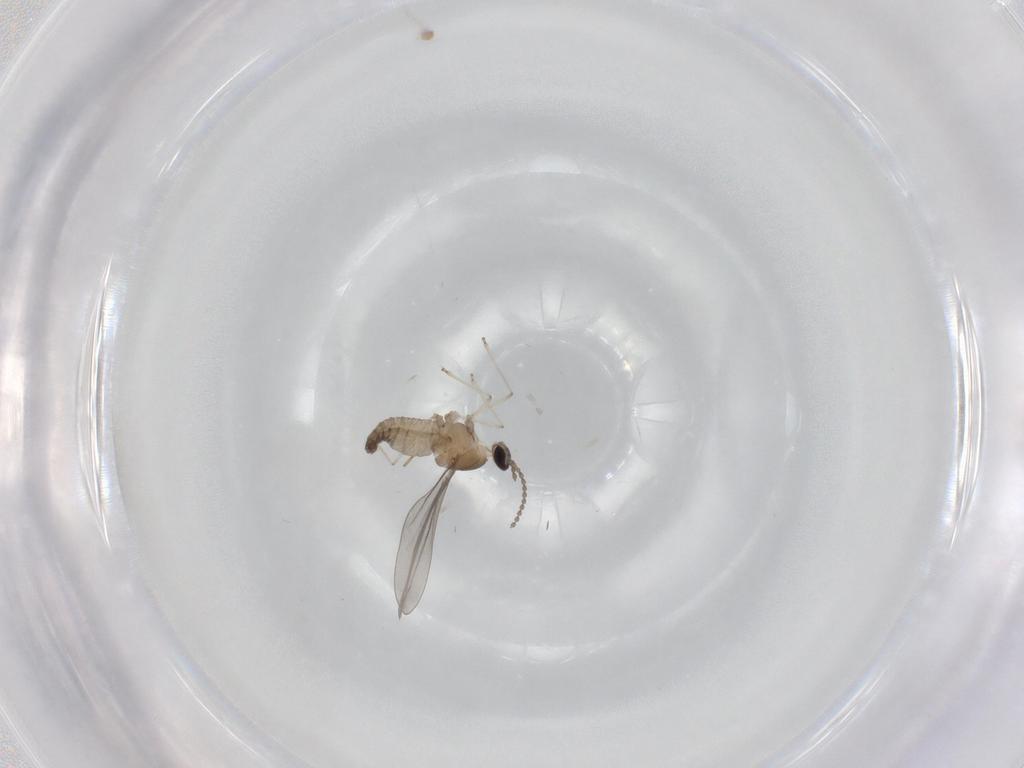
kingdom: Animalia
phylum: Arthropoda
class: Insecta
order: Diptera
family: Cecidomyiidae
